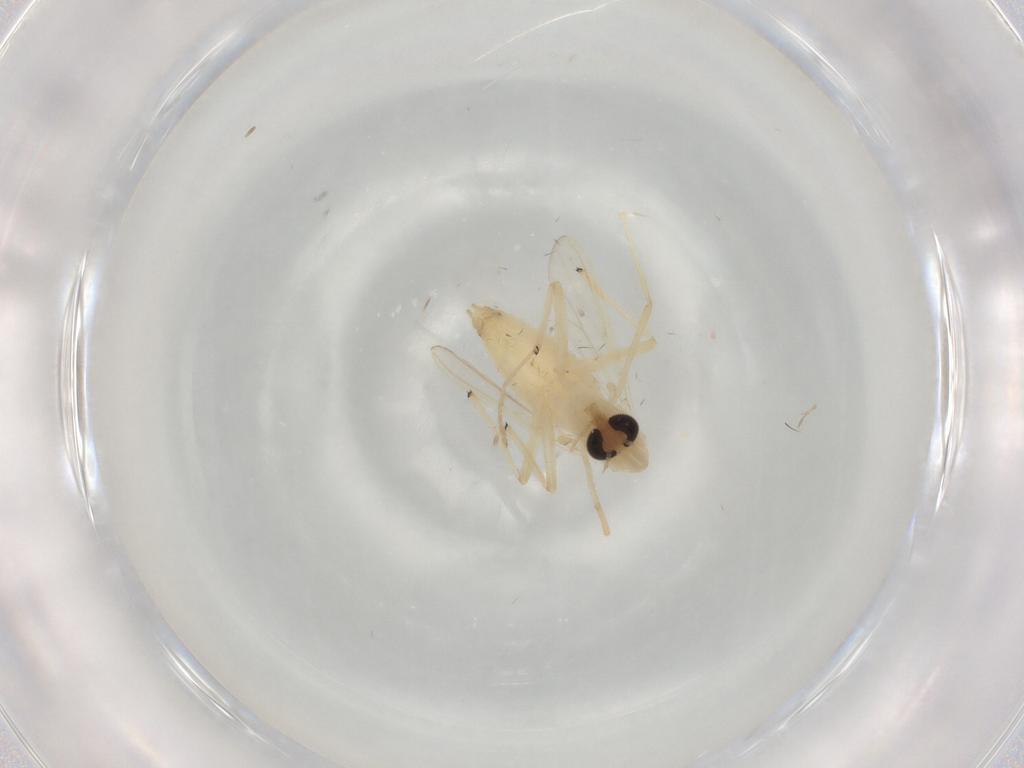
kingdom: Animalia
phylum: Arthropoda
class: Insecta
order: Diptera
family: Chironomidae
